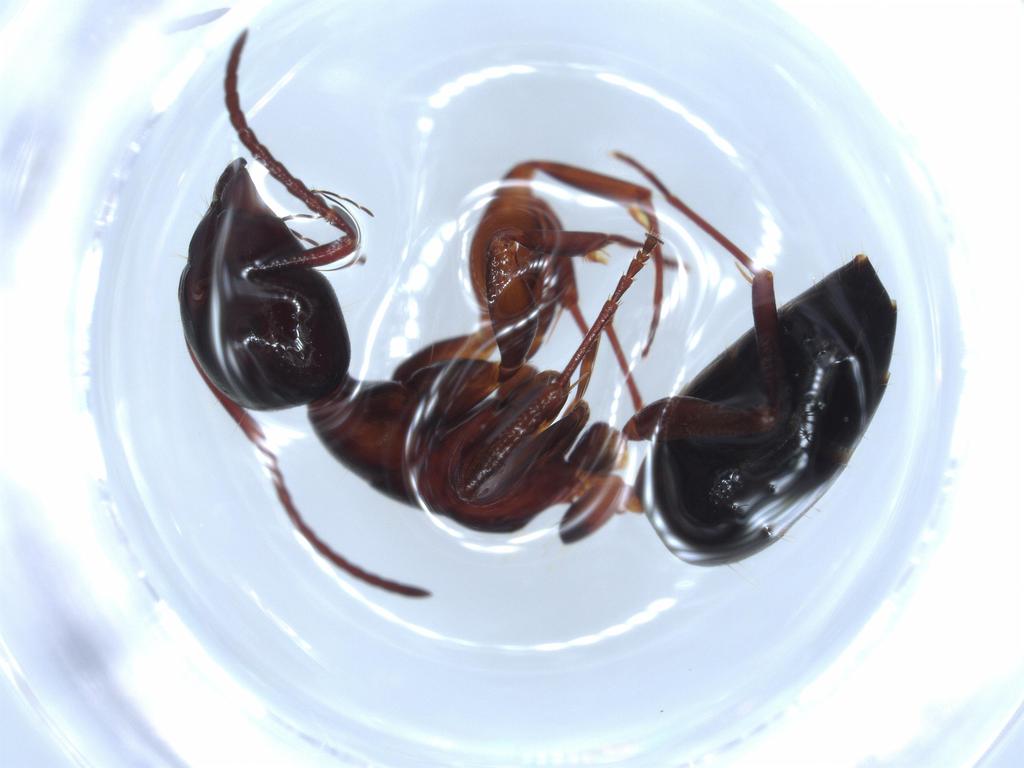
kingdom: Animalia
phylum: Arthropoda
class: Insecta
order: Hymenoptera
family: Formicidae
